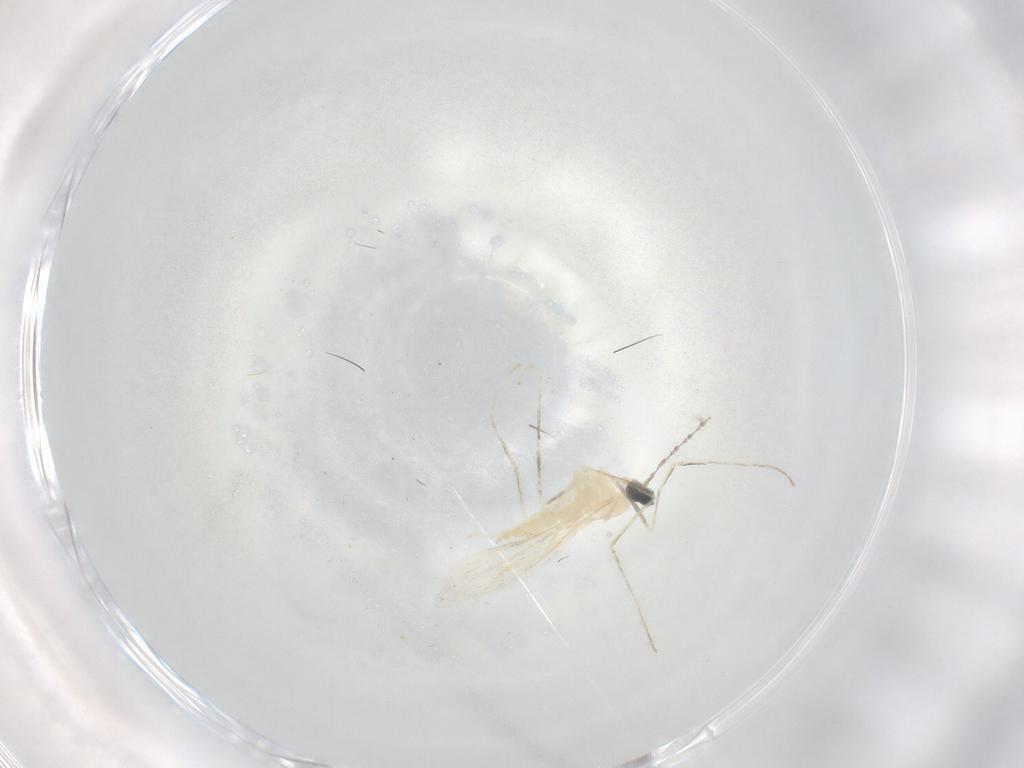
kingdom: Animalia
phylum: Arthropoda
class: Insecta
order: Diptera
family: Cecidomyiidae
